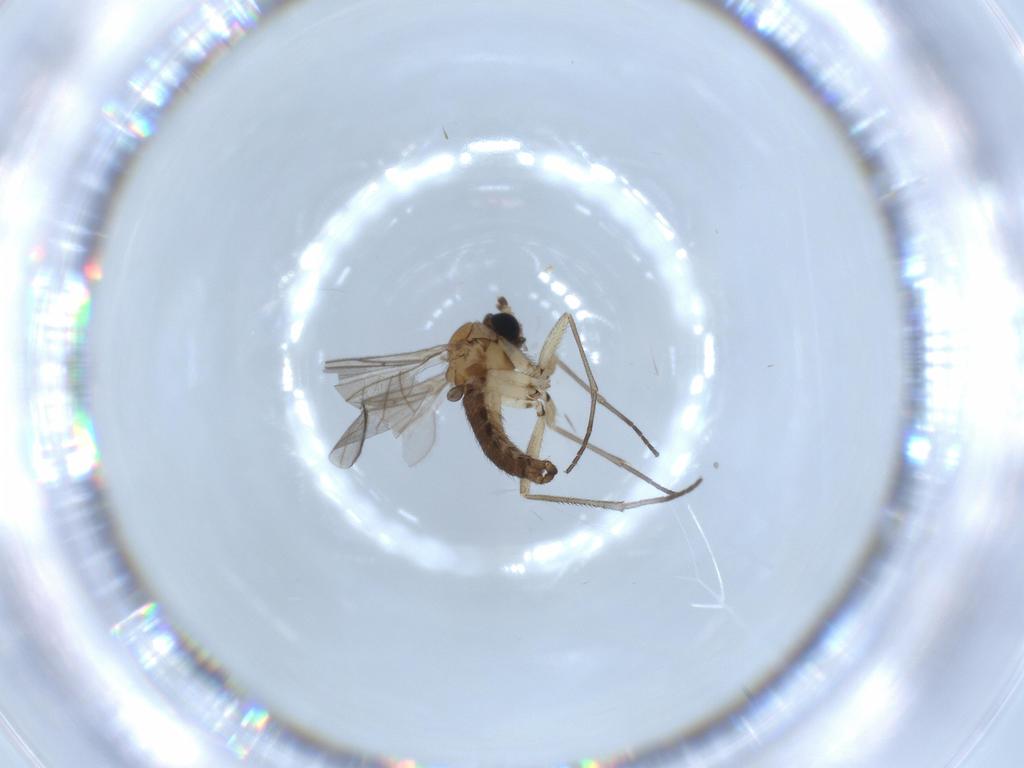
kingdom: Animalia
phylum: Arthropoda
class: Insecta
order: Diptera
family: Sciaridae
